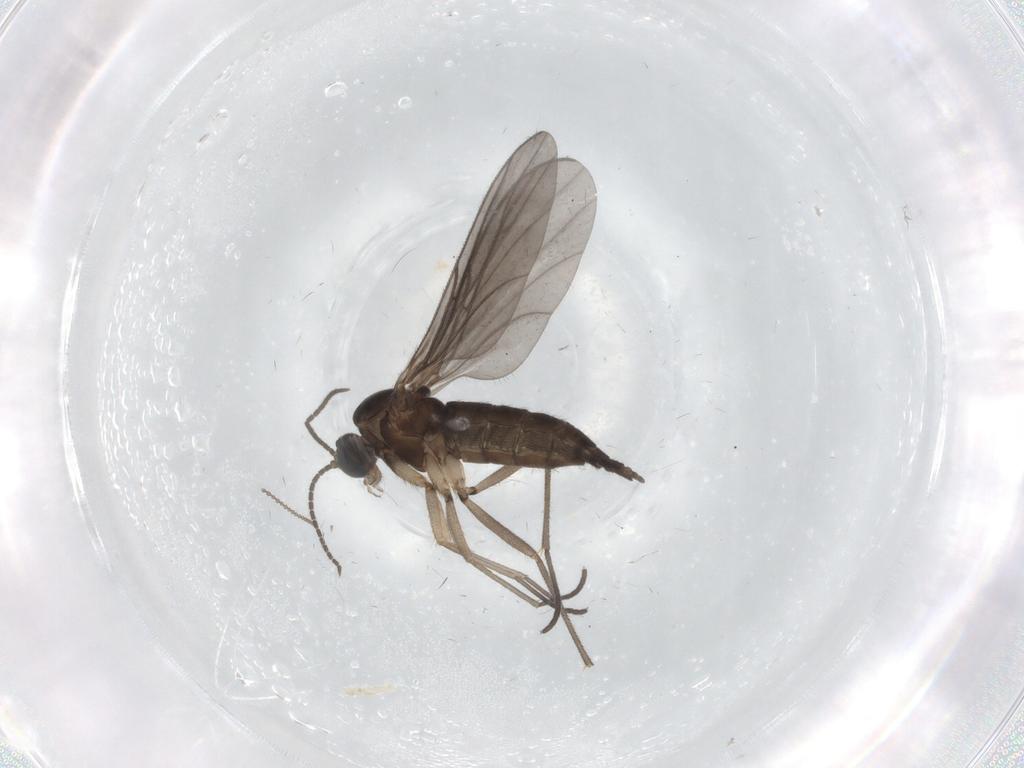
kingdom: Animalia
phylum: Arthropoda
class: Insecta
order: Diptera
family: Sciaridae
